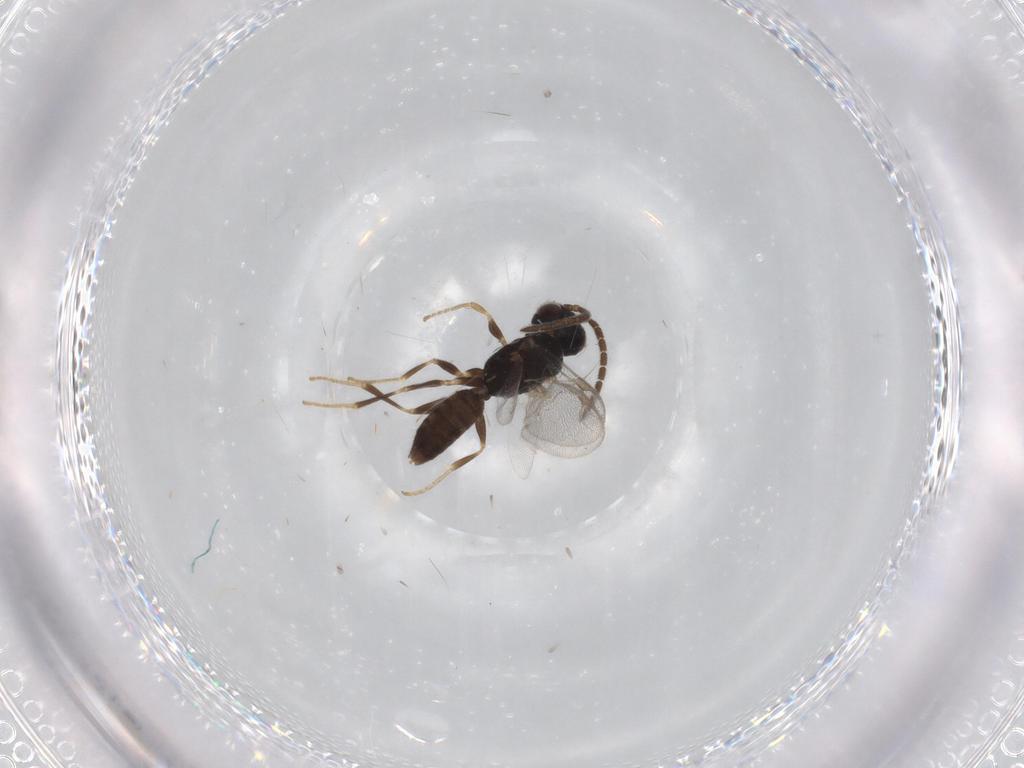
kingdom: Animalia
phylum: Arthropoda
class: Insecta
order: Hymenoptera
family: Dryinidae
